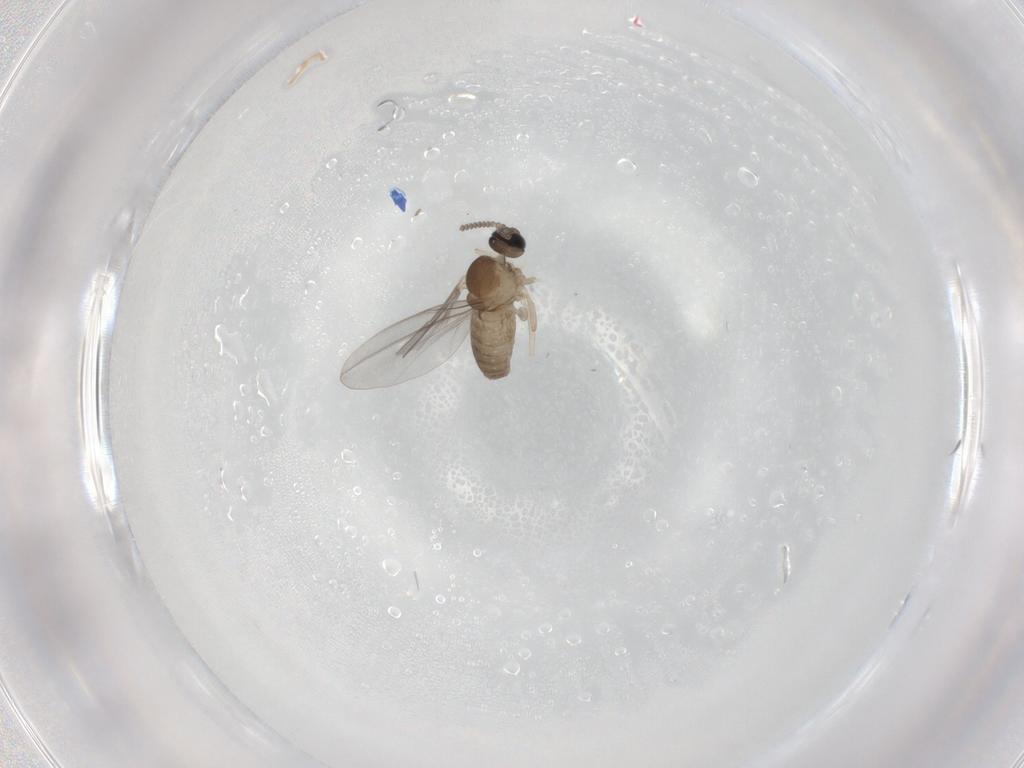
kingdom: Animalia
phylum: Arthropoda
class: Insecta
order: Diptera
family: Cecidomyiidae
